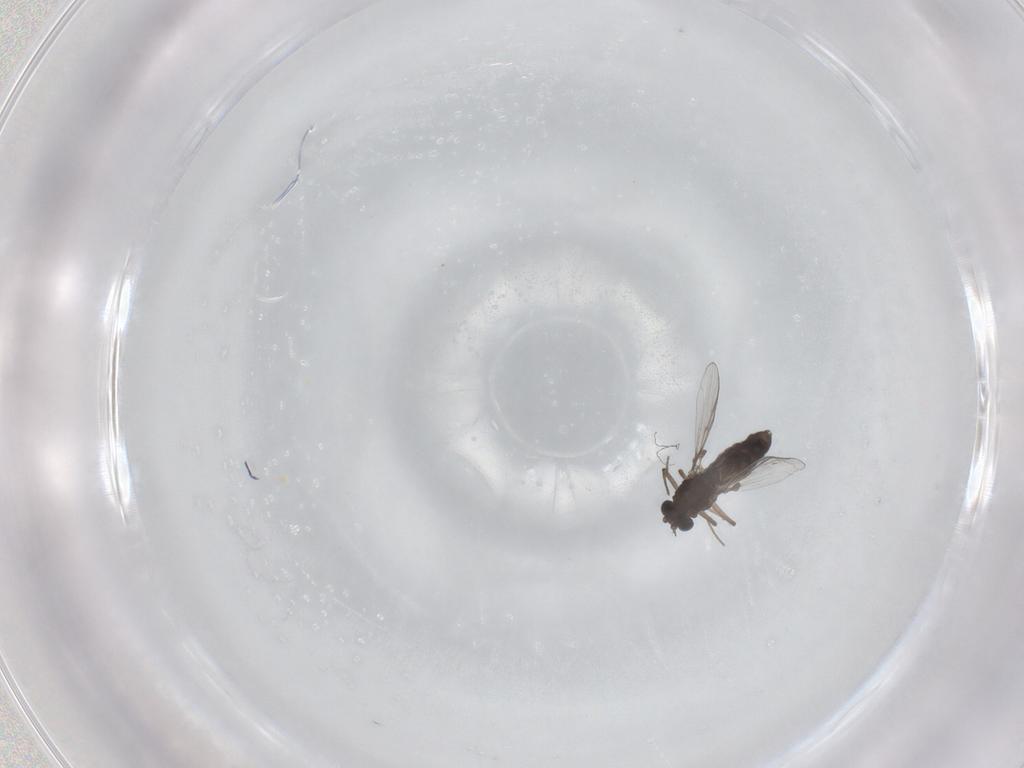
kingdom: Animalia
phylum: Arthropoda
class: Insecta
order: Diptera
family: Chironomidae
